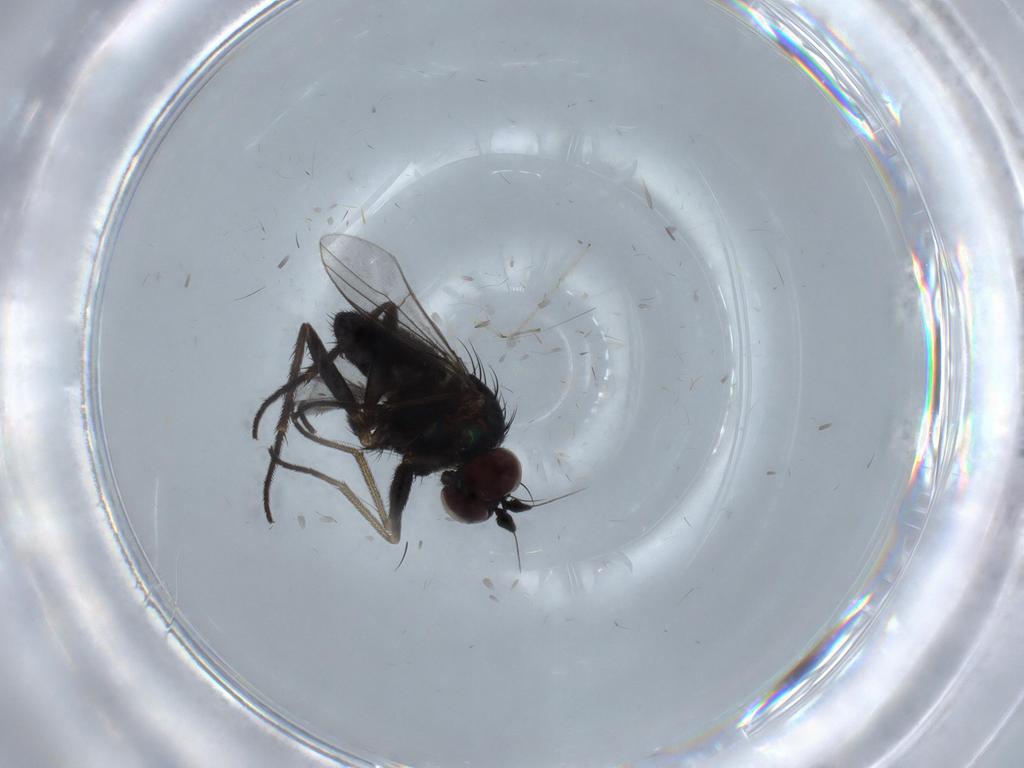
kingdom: Animalia
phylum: Arthropoda
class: Insecta
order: Diptera
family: Dolichopodidae
